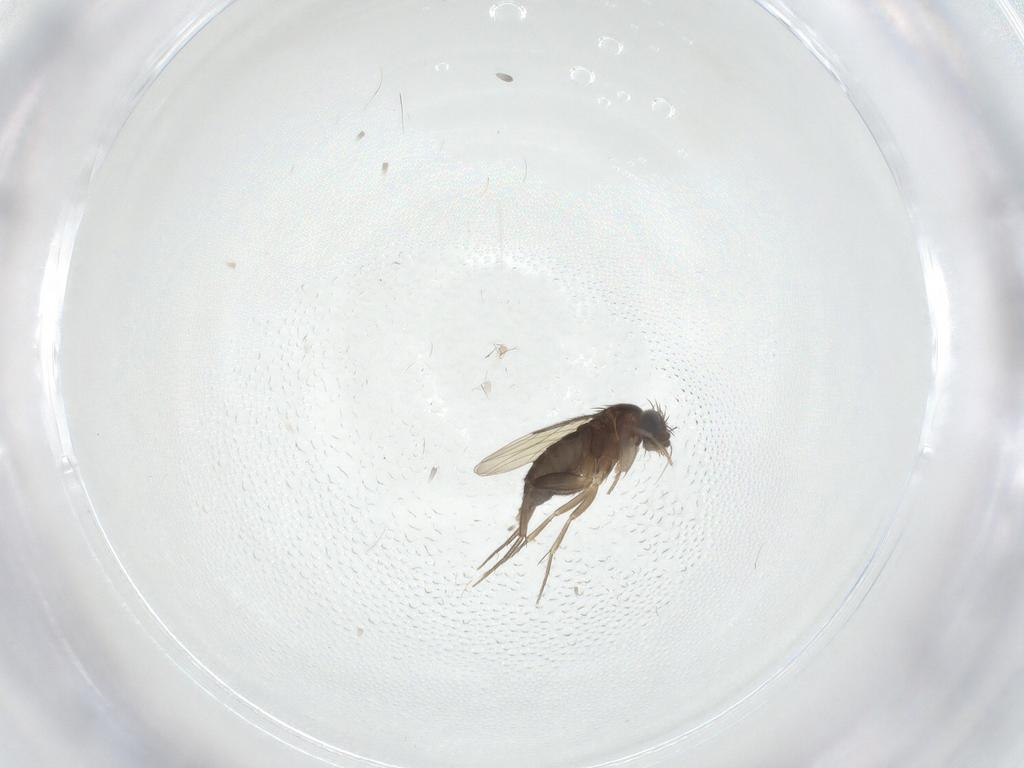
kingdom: Animalia
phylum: Arthropoda
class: Insecta
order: Diptera
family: Phoridae
